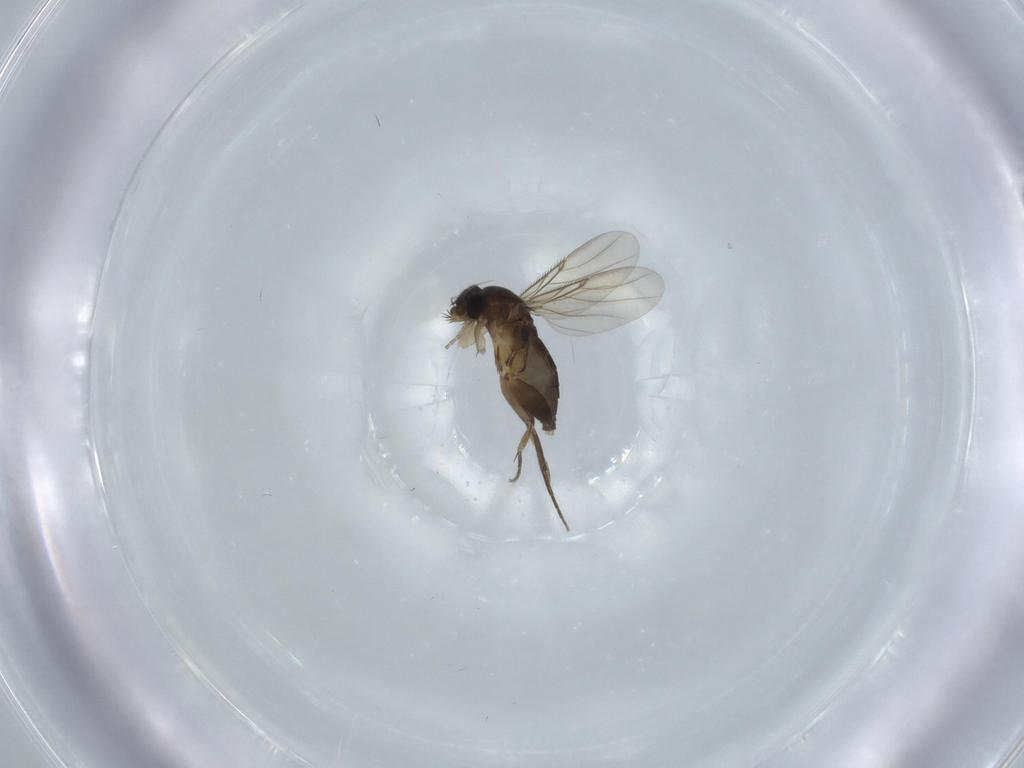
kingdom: Animalia
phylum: Arthropoda
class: Insecta
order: Diptera
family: Phoridae
